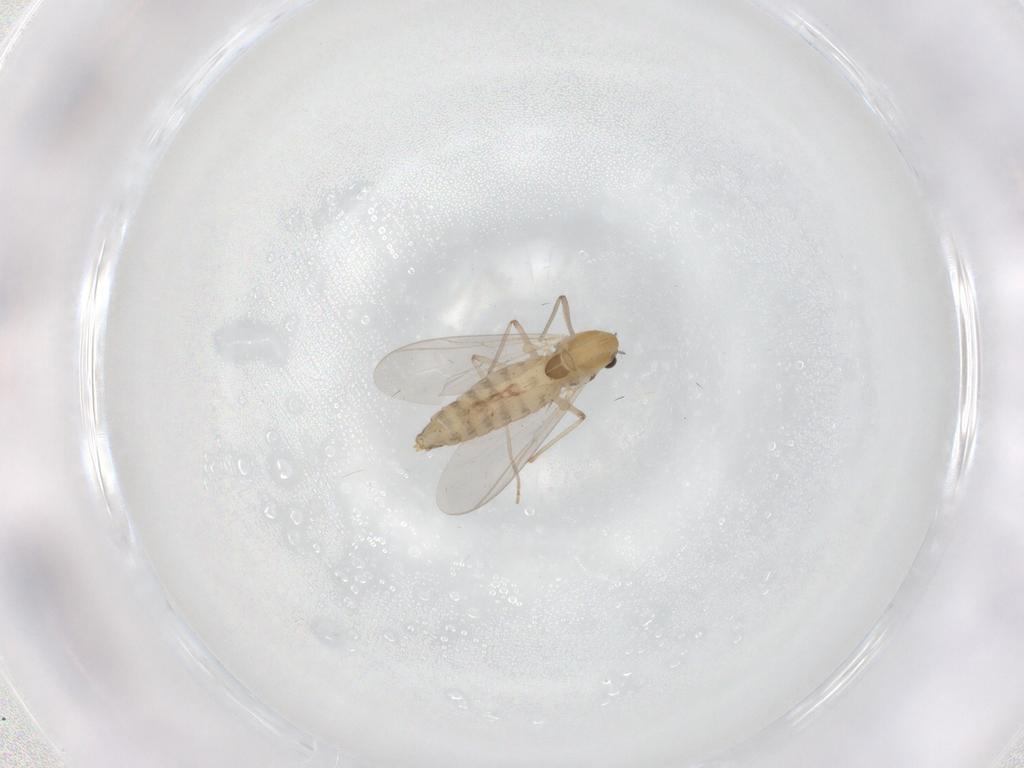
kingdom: Animalia
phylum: Arthropoda
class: Insecta
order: Diptera
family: Chironomidae
